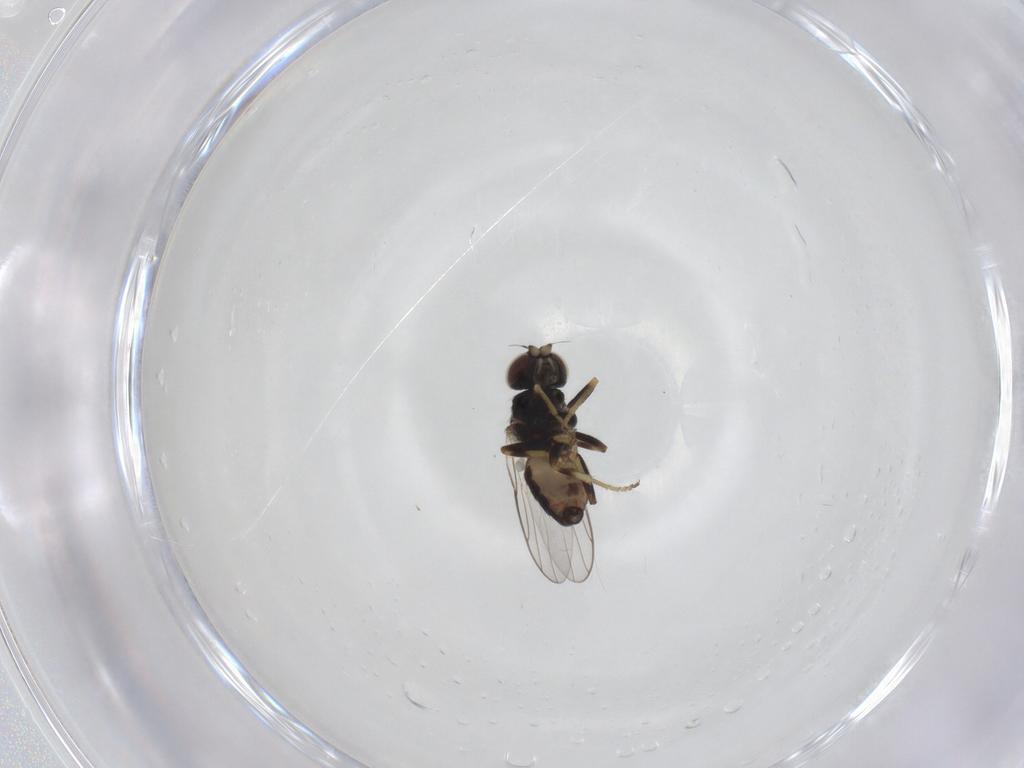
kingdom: Animalia
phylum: Arthropoda
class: Insecta
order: Diptera
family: Chloropidae
